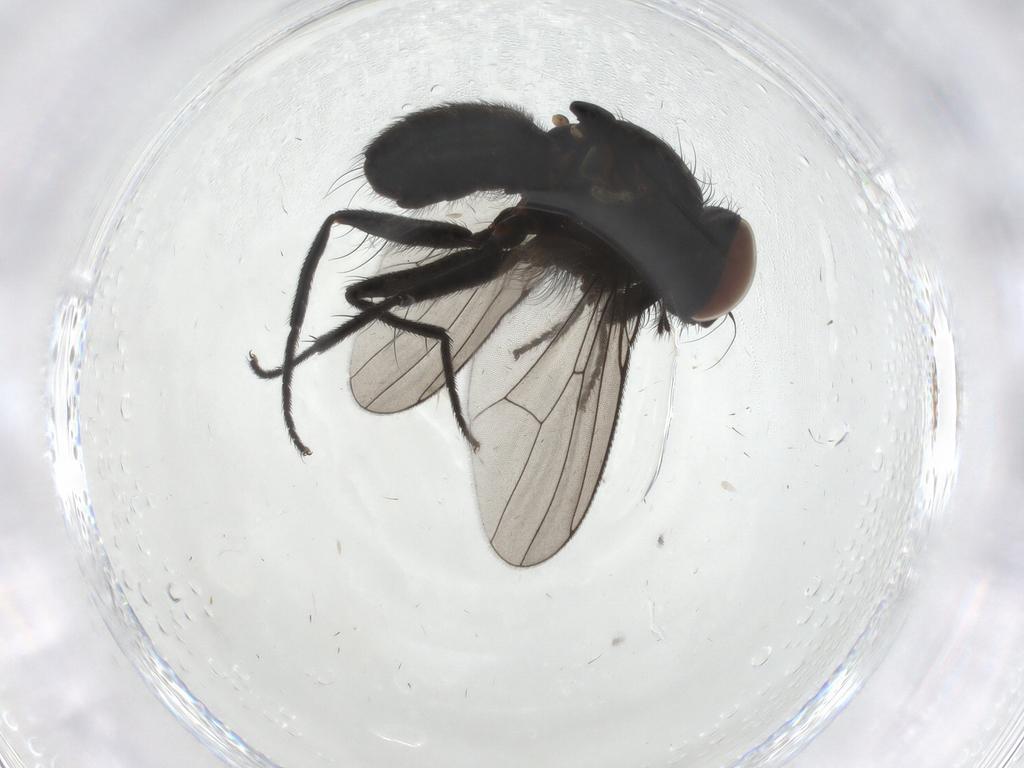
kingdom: Animalia
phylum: Arthropoda
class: Insecta
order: Diptera
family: Muscidae
